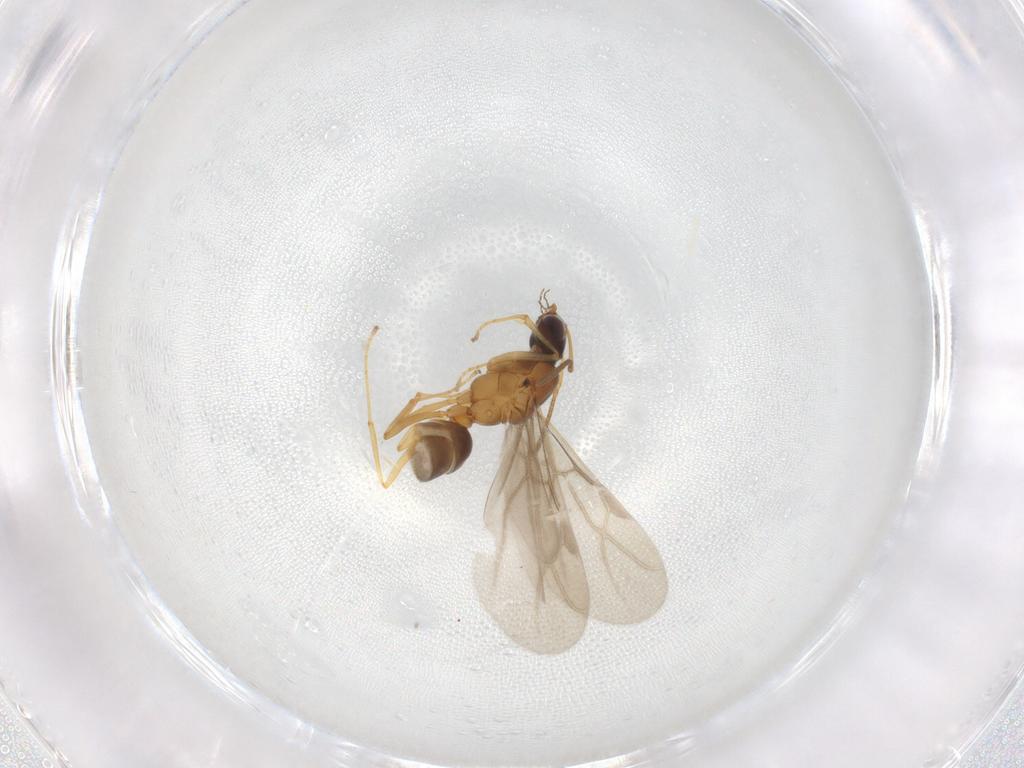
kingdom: Animalia
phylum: Arthropoda
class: Insecta
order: Hymenoptera
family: Formicidae
